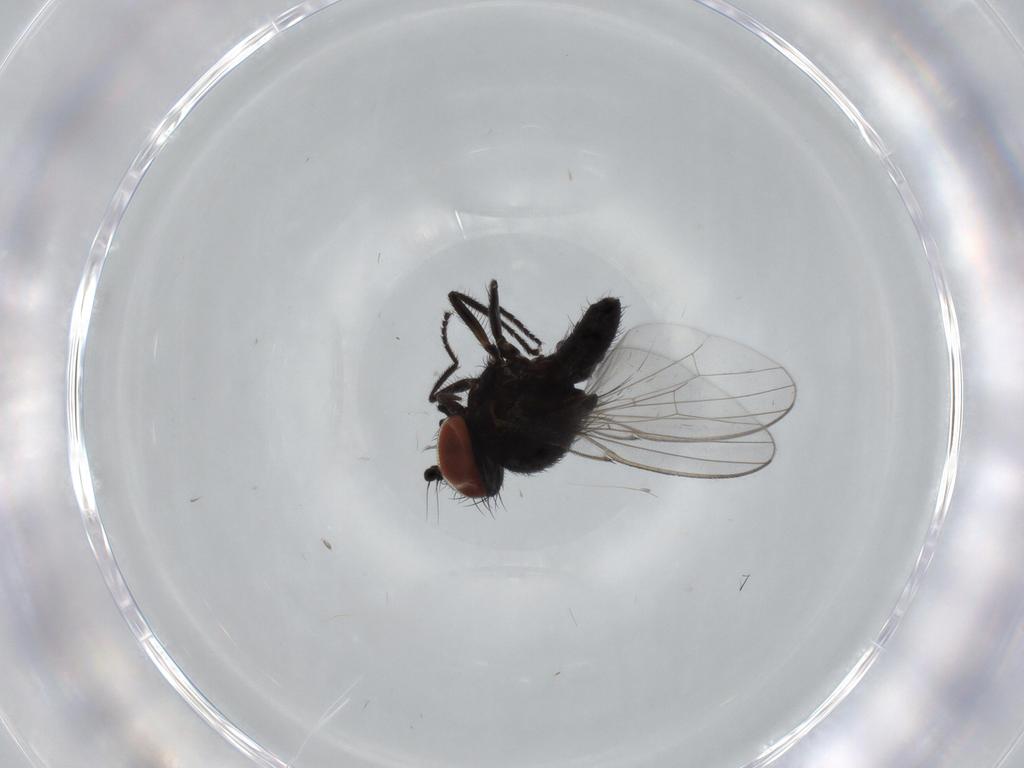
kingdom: Animalia
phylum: Arthropoda
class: Insecta
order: Diptera
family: Milichiidae
